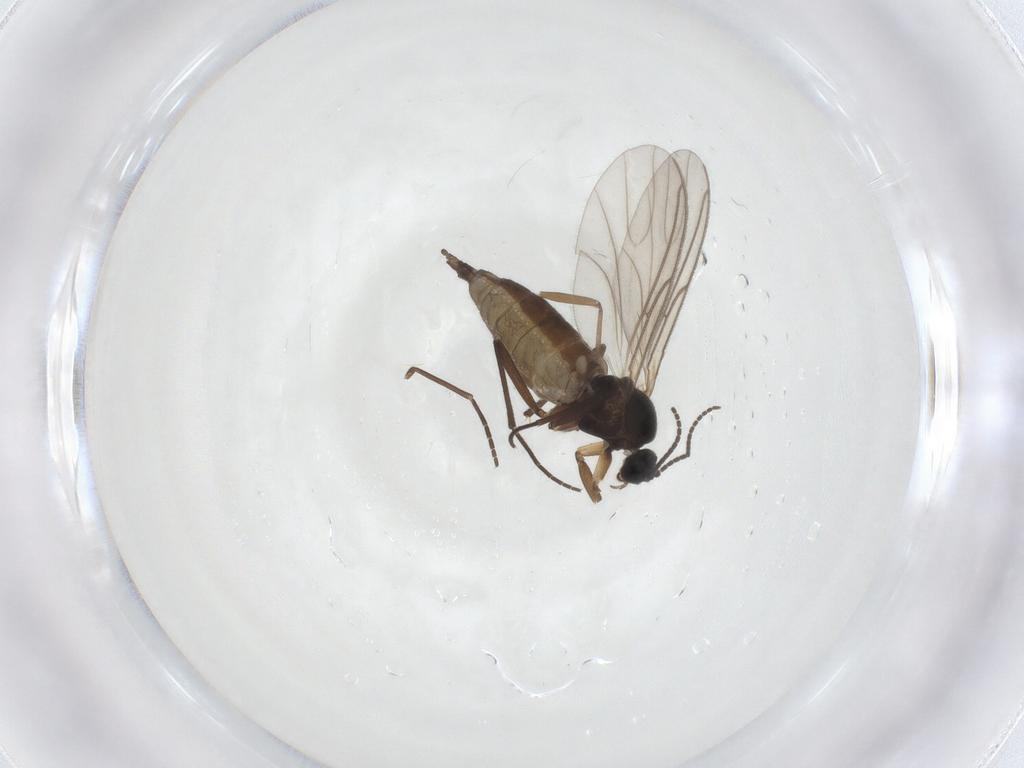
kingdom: Animalia
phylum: Arthropoda
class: Insecta
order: Diptera
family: Sciaridae
